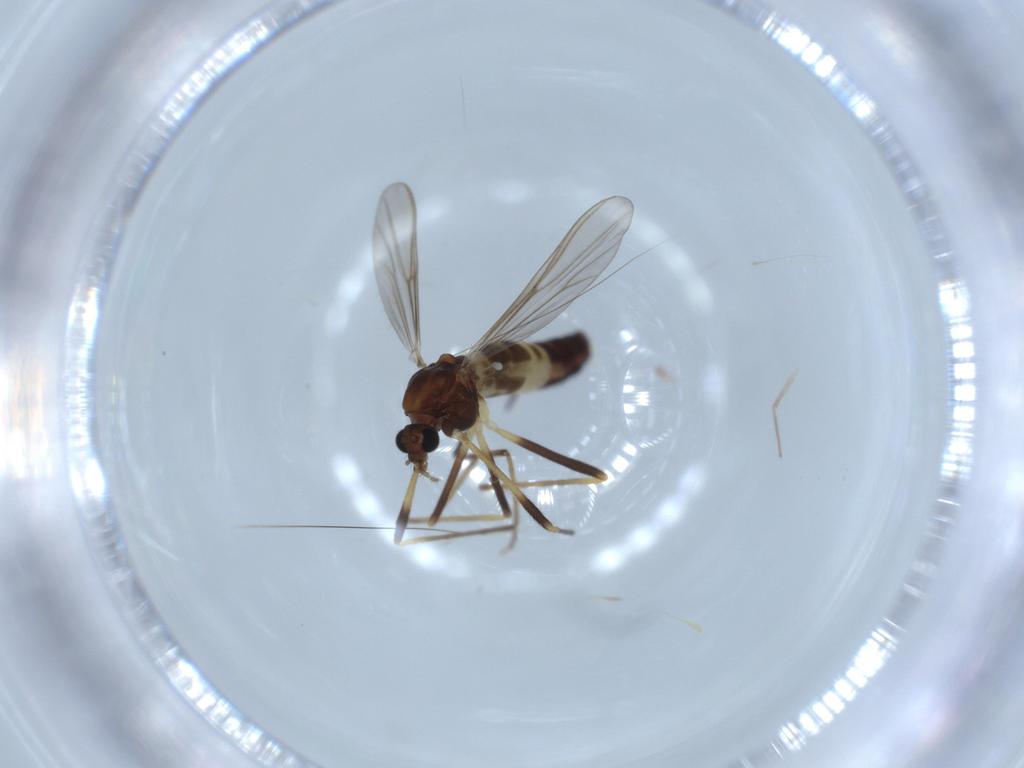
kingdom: Animalia
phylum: Arthropoda
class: Insecta
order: Diptera
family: Chironomidae
